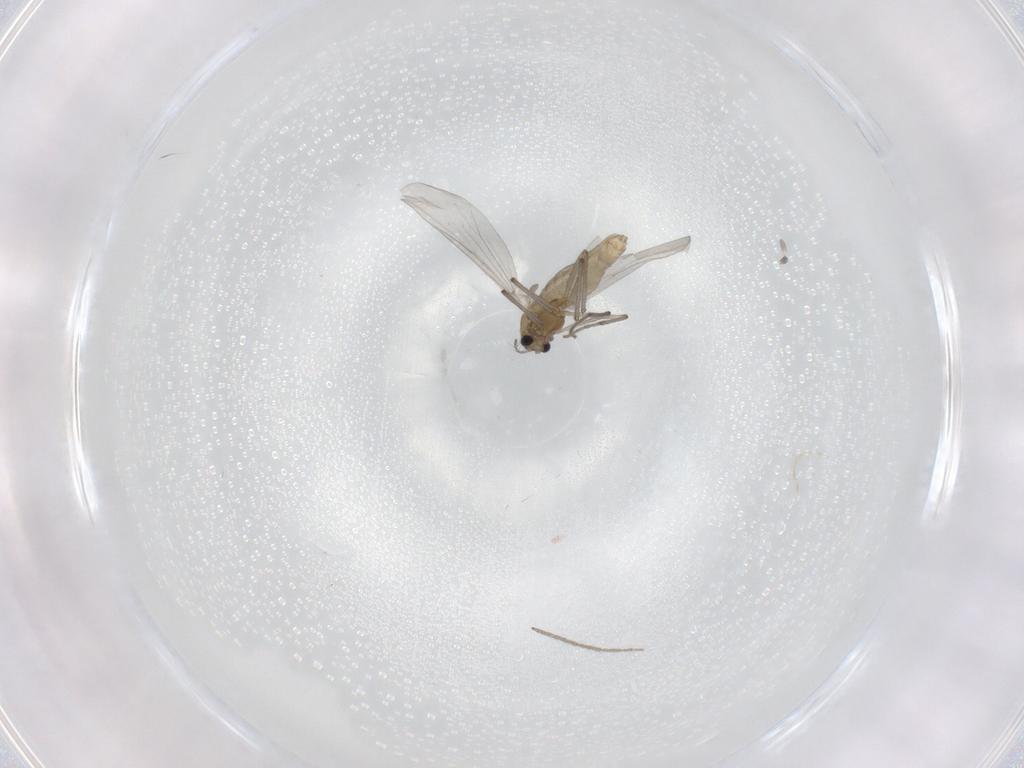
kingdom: Animalia
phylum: Arthropoda
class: Insecta
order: Diptera
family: Chironomidae
